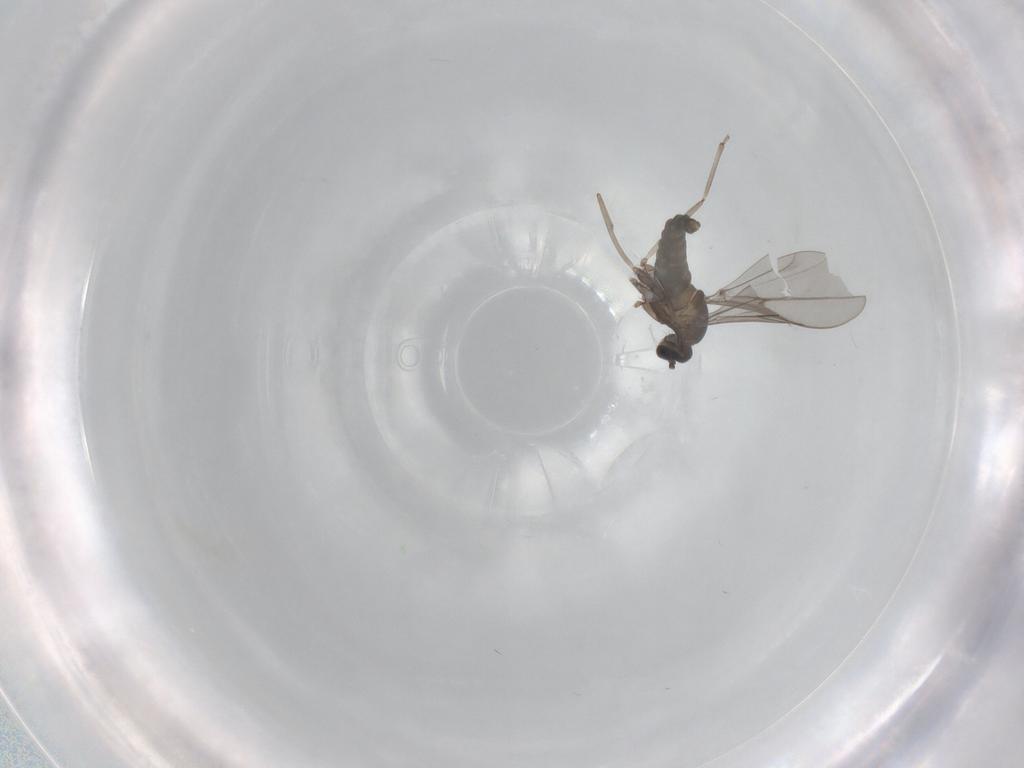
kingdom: Animalia
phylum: Arthropoda
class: Insecta
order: Diptera
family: Cecidomyiidae
